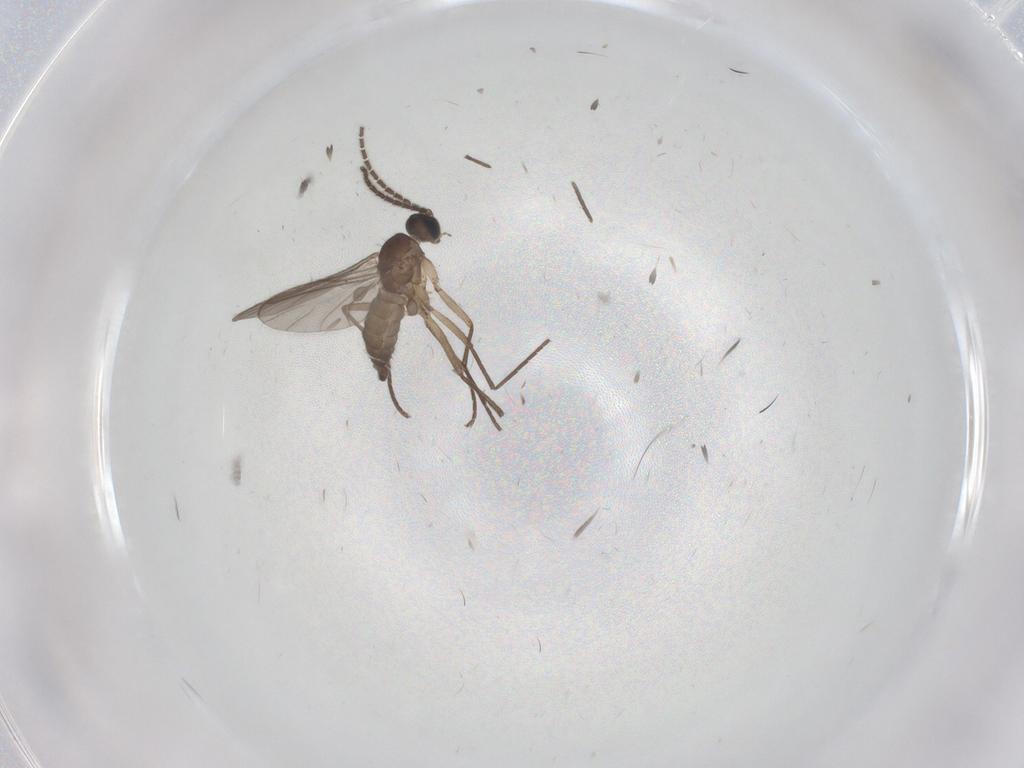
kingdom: Animalia
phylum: Arthropoda
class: Insecta
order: Diptera
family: Sciaridae
